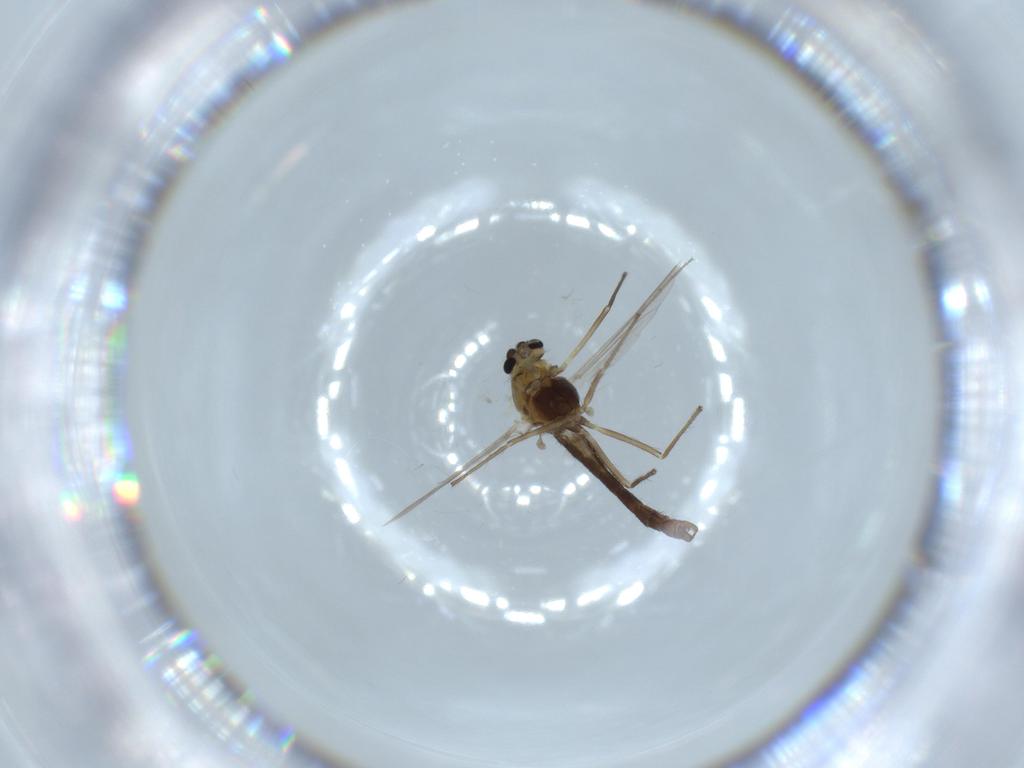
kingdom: Animalia
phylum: Arthropoda
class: Insecta
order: Diptera
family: Chironomidae
